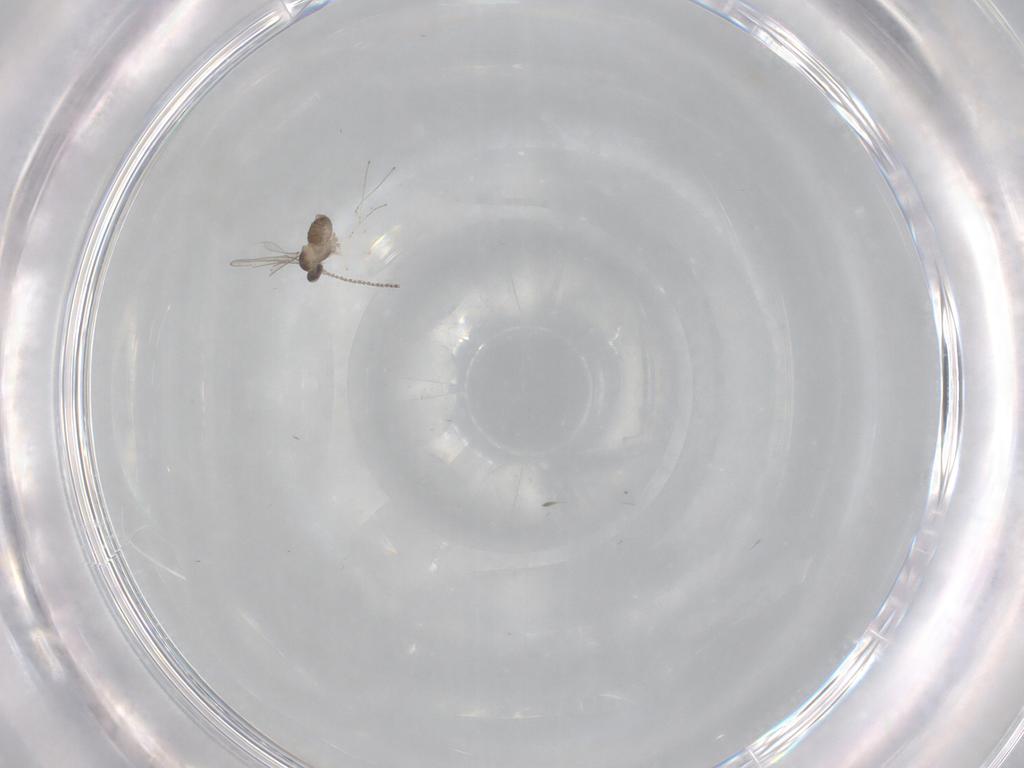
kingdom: Animalia
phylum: Arthropoda
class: Insecta
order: Diptera
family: Cecidomyiidae
